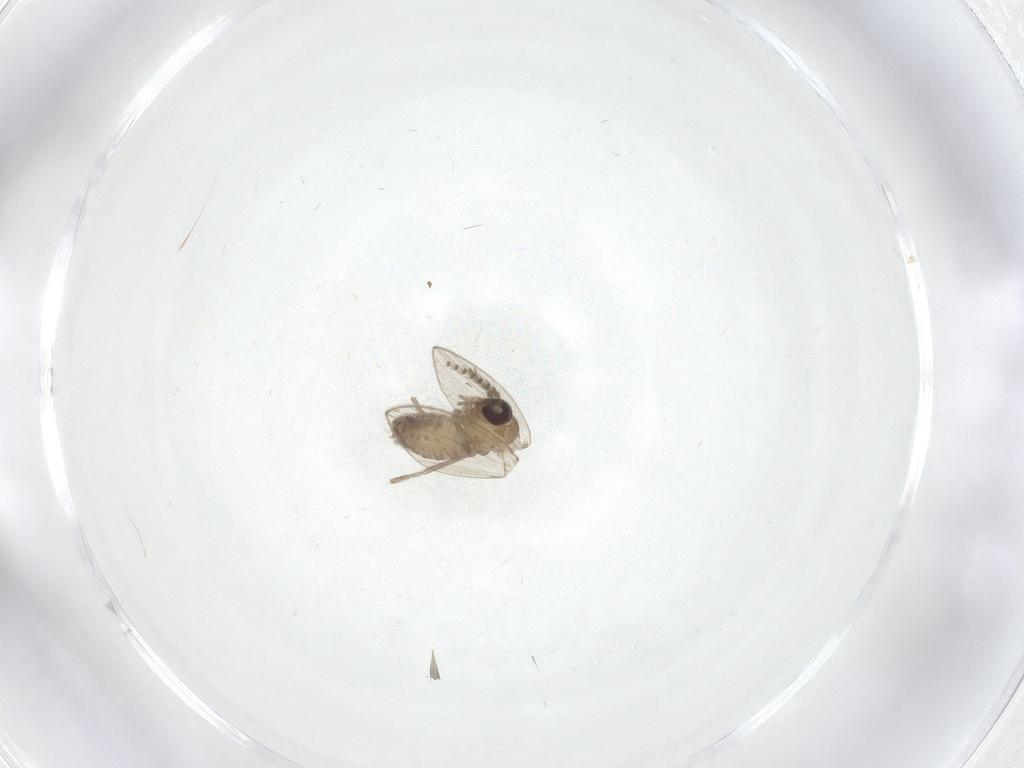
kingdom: Animalia
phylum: Arthropoda
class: Insecta
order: Diptera
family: Psychodidae
